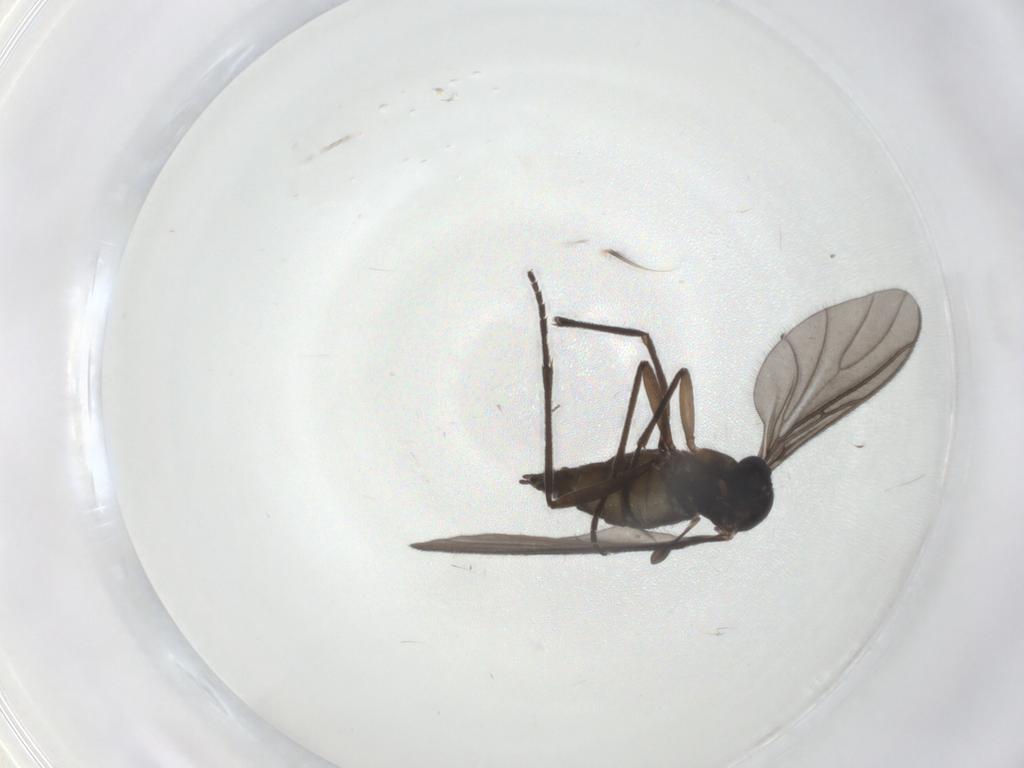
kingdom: Animalia
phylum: Arthropoda
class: Insecta
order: Diptera
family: Sciaridae
